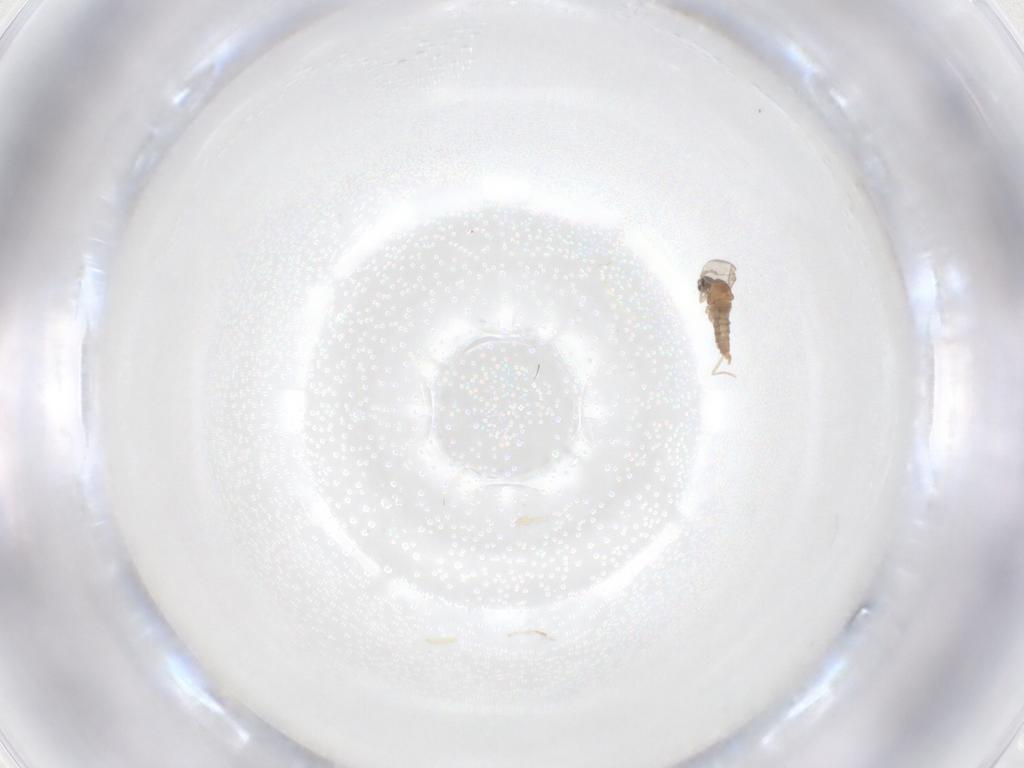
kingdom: Animalia
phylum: Arthropoda
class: Insecta
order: Diptera
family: Cecidomyiidae
